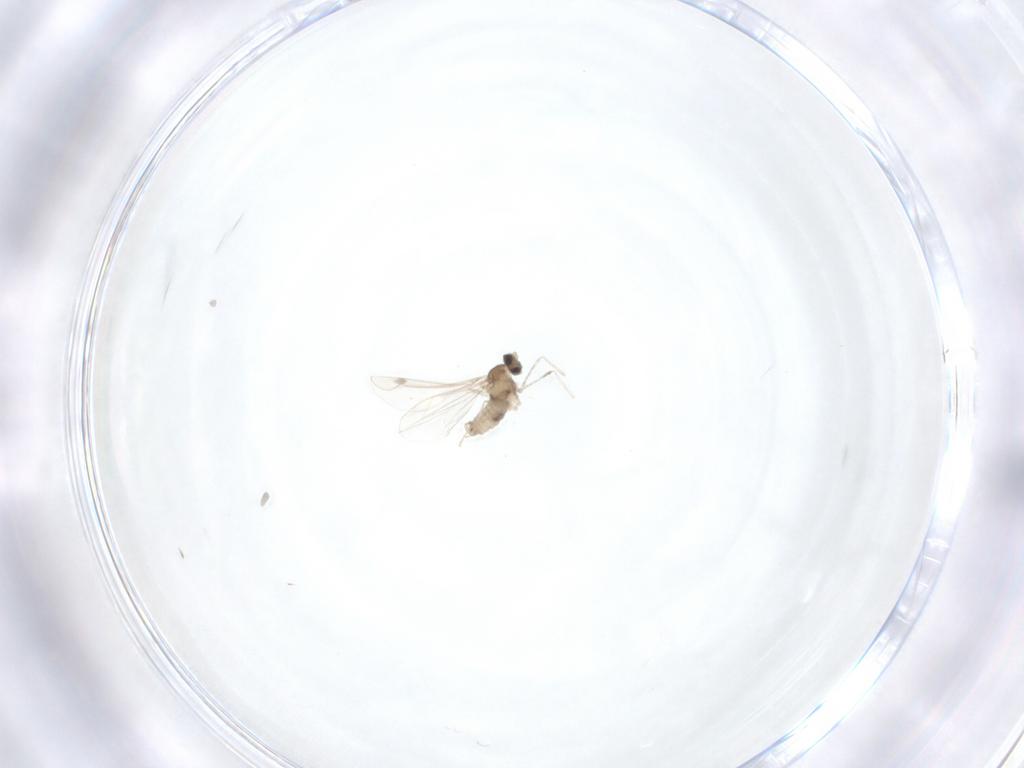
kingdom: Animalia
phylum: Arthropoda
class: Insecta
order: Diptera
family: Cecidomyiidae
